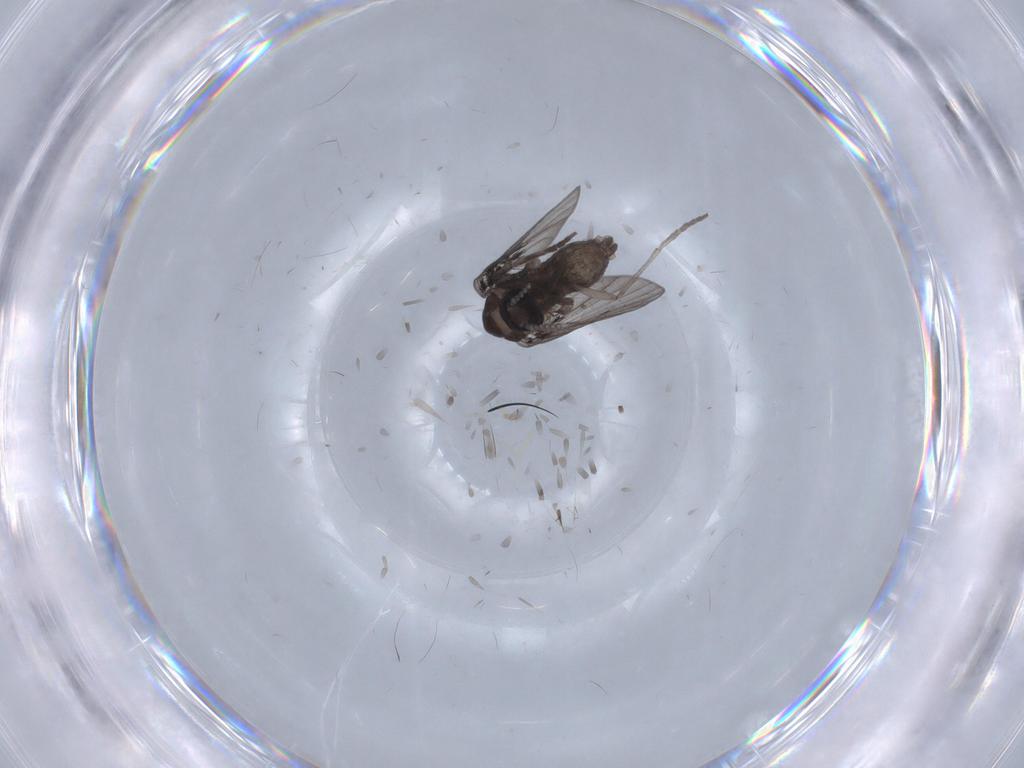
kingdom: Animalia
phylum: Arthropoda
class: Insecta
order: Diptera
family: Psychodidae
